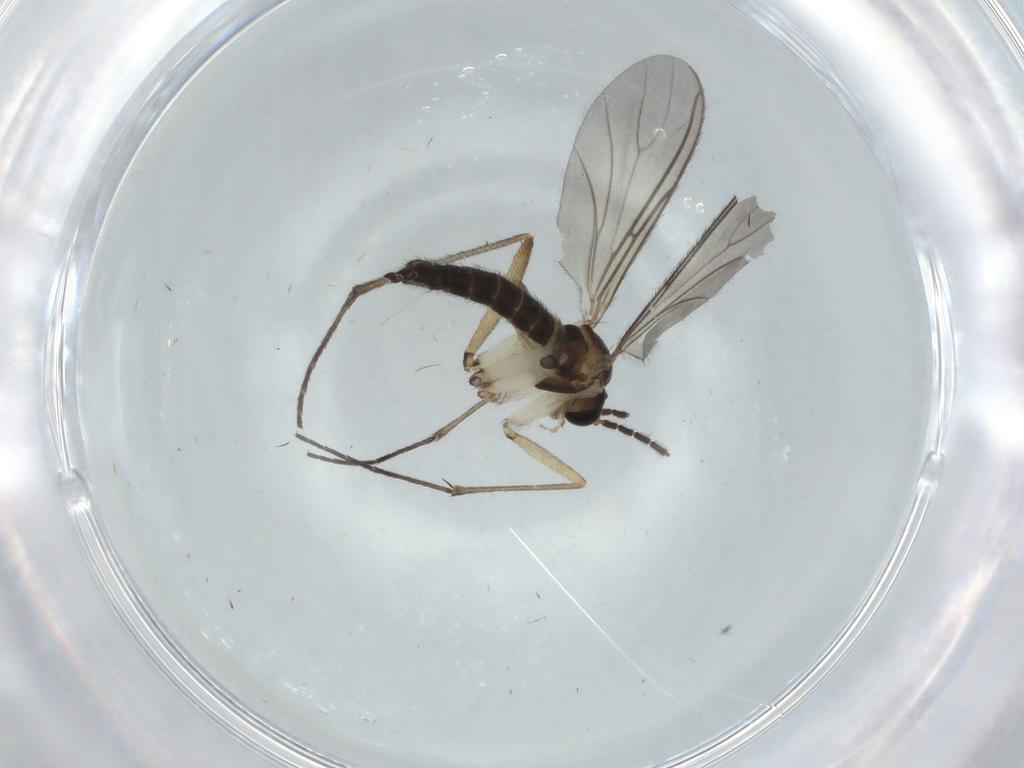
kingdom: Animalia
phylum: Arthropoda
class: Insecta
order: Diptera
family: Sciaridae
